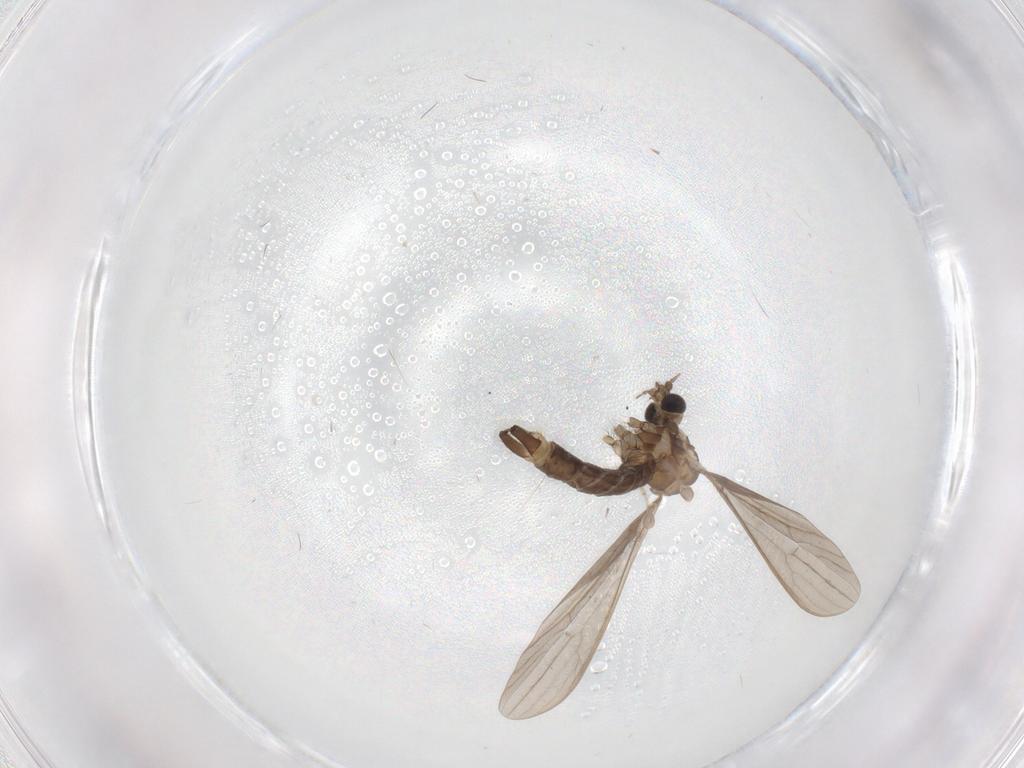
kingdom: Animalia
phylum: Arthropoda
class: Insecta
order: Diptera
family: Limoniidae
